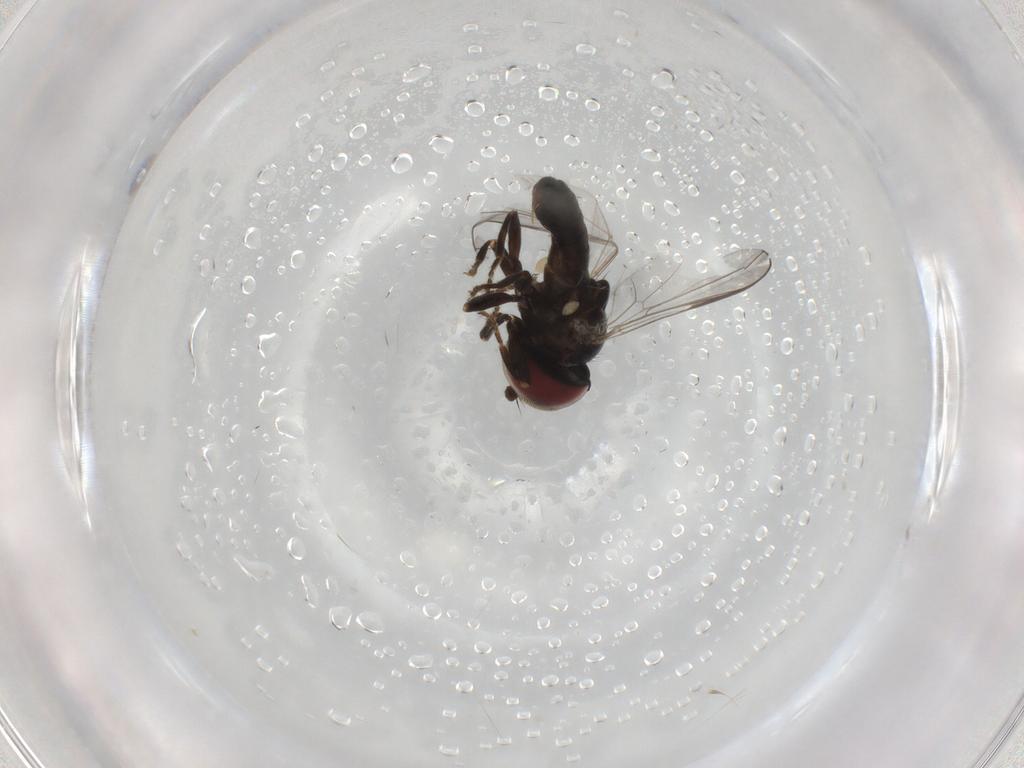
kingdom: Animalia
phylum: Arthropoda
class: Insecta
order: Diptera
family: Pipunculidae
